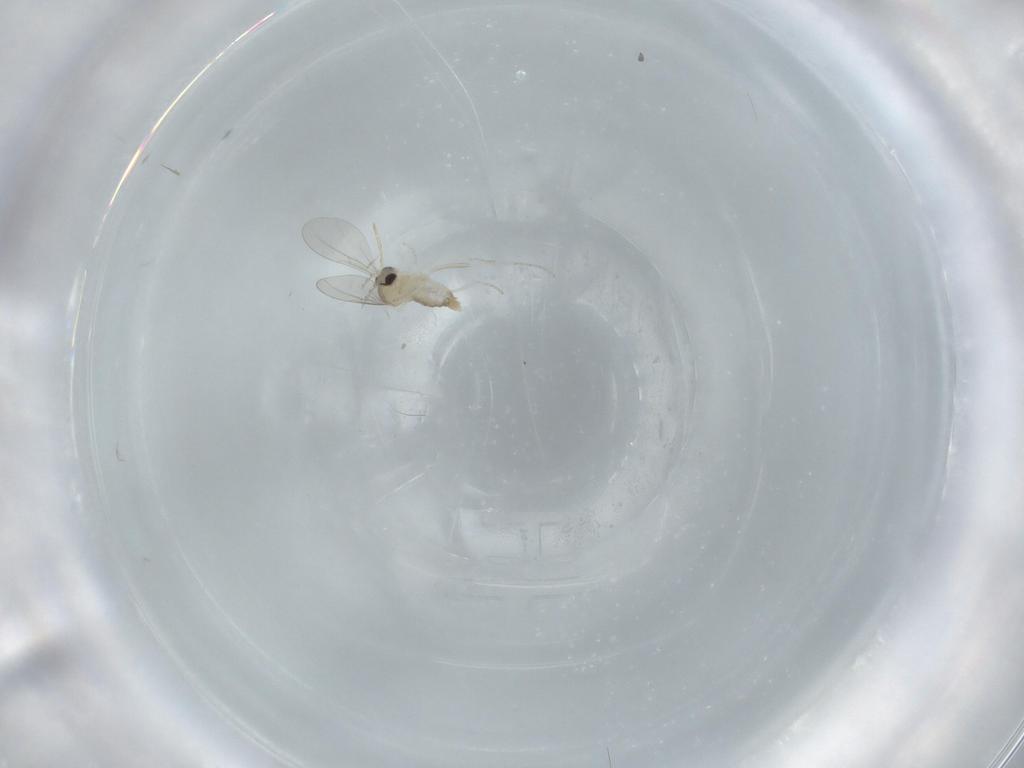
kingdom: Animalia
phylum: Arthropoda
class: Insecta
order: Diptera
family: Cecidomyiidae
